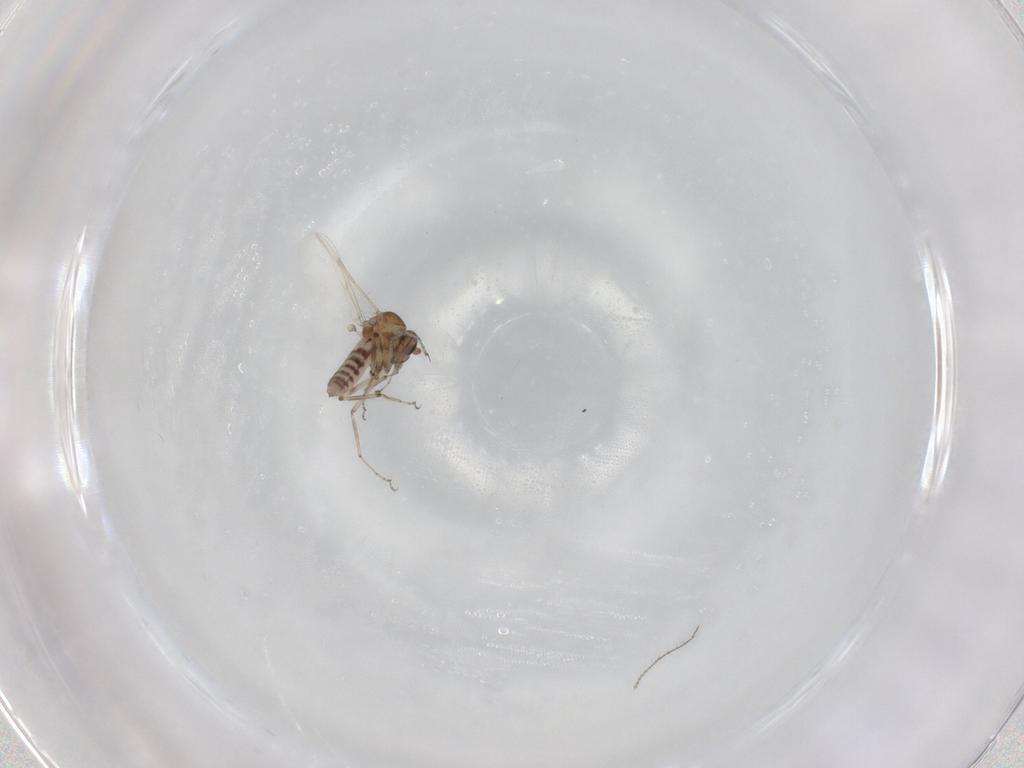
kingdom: Animalia
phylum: Arthropoda
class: Insecta
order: Diptera
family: Ceratopogonidae
